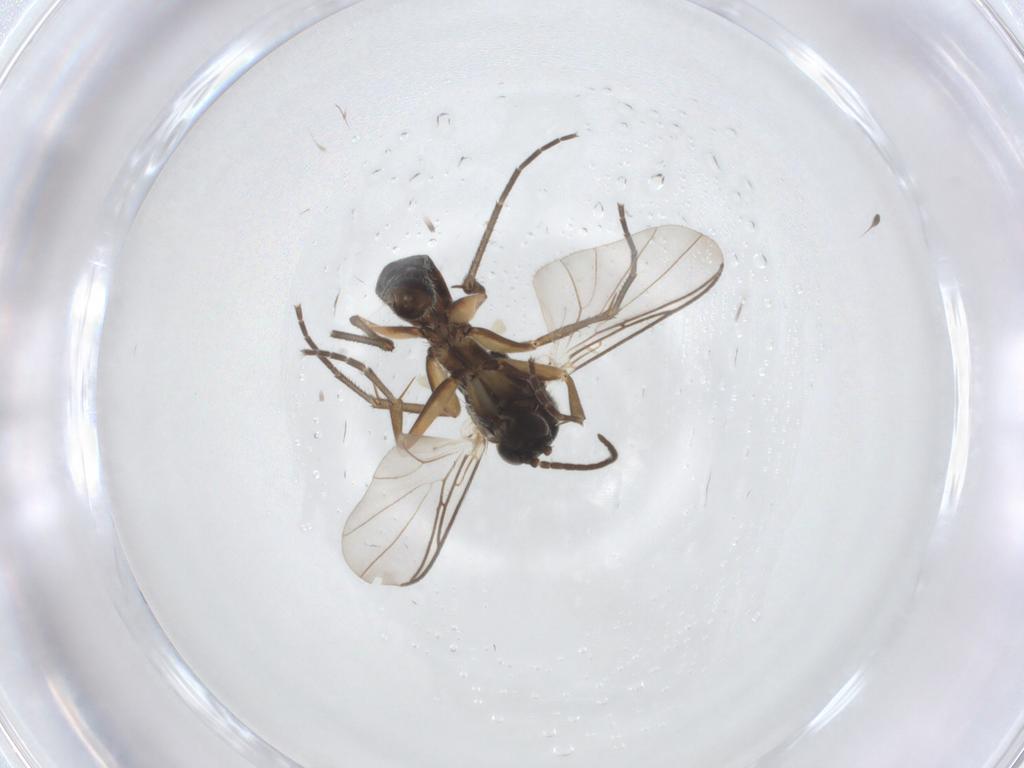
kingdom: Animalia
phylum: Arthropoda
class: Insecta
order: Diptera
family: Mycetophilidae
